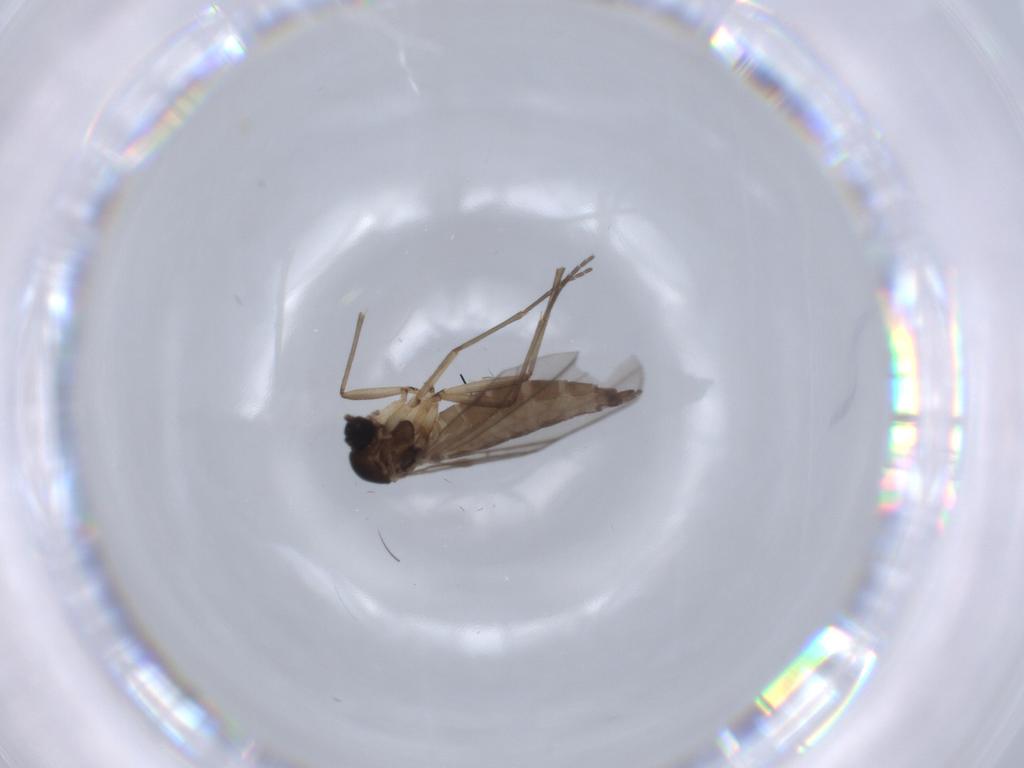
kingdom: Animalia
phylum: Arthropoda
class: Insecta
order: Diptera
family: Sciaridae
